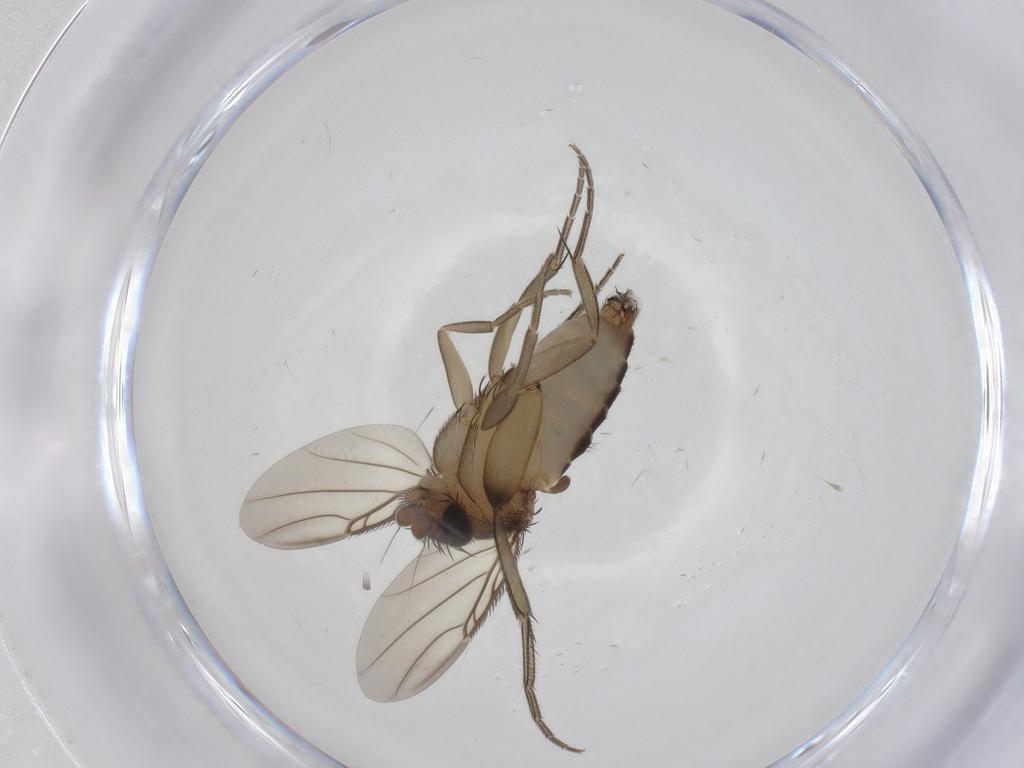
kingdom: Animalia
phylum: Arthropoda
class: Insecta
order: Diptera
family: Phoridae
